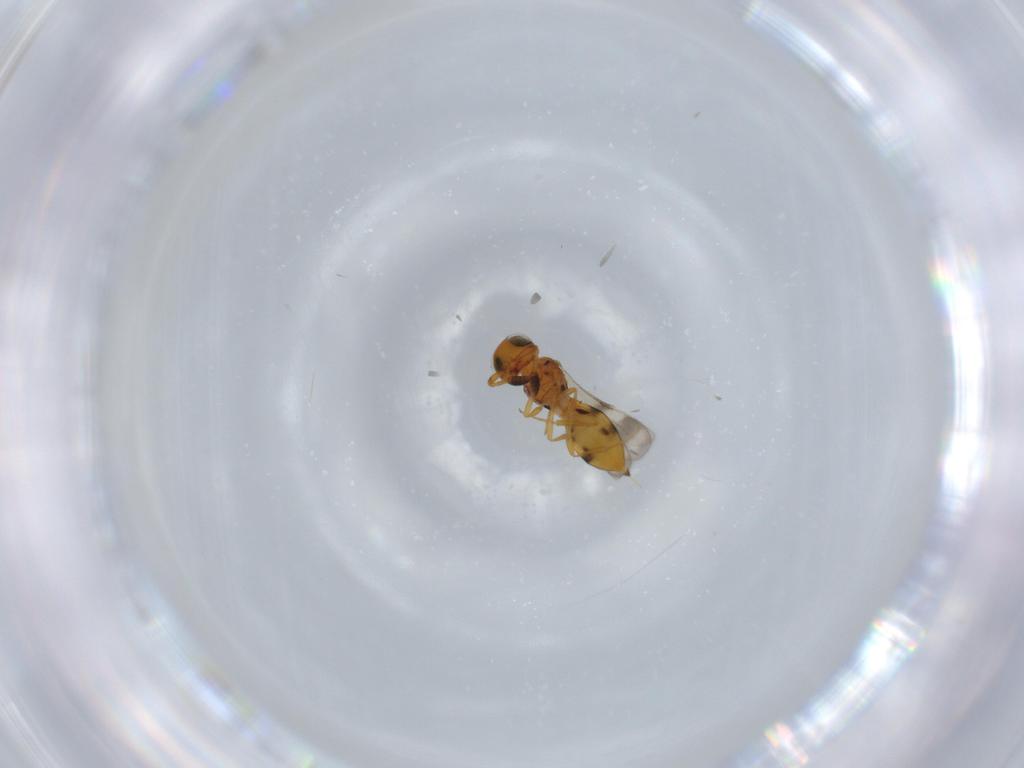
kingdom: Animalia
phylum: Arthropoda
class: Insecta
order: Hymenoptera
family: Scelionidae
